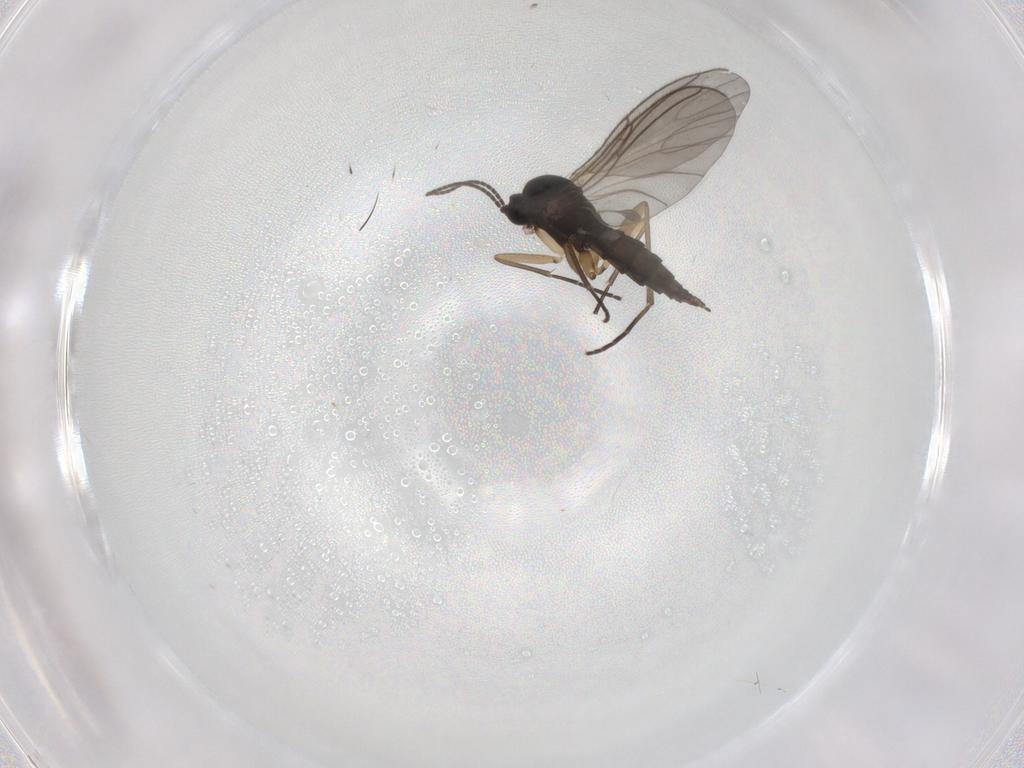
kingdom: Animalia
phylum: Arthropoda
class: Insecta
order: Diptera
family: Sciaridae
